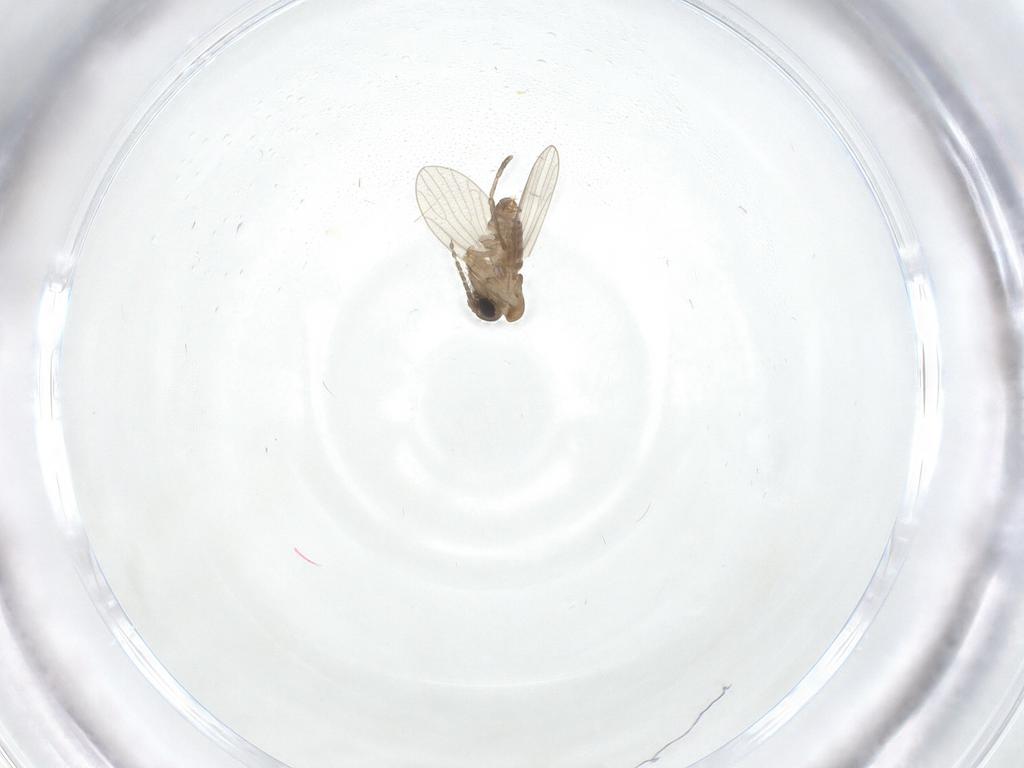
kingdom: Animalia
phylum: Arthropoda
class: Insecta
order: Diptera
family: Psychodidae
